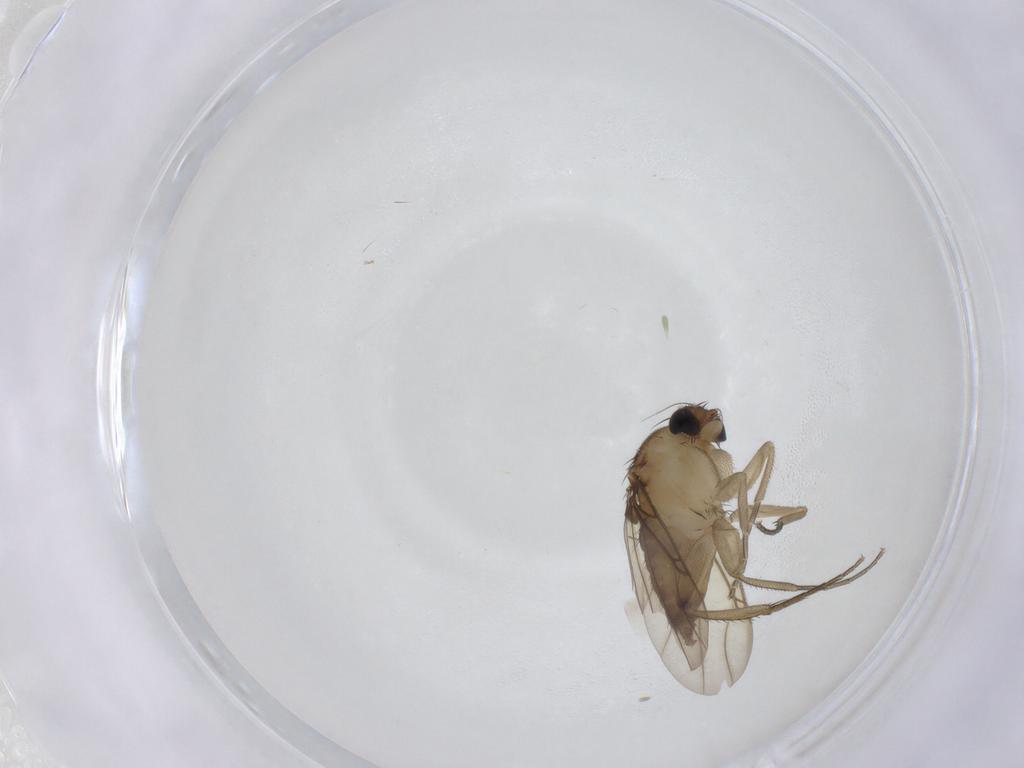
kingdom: Animalia
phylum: Arthropoda
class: Insecta
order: Diptera
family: Phoridae
